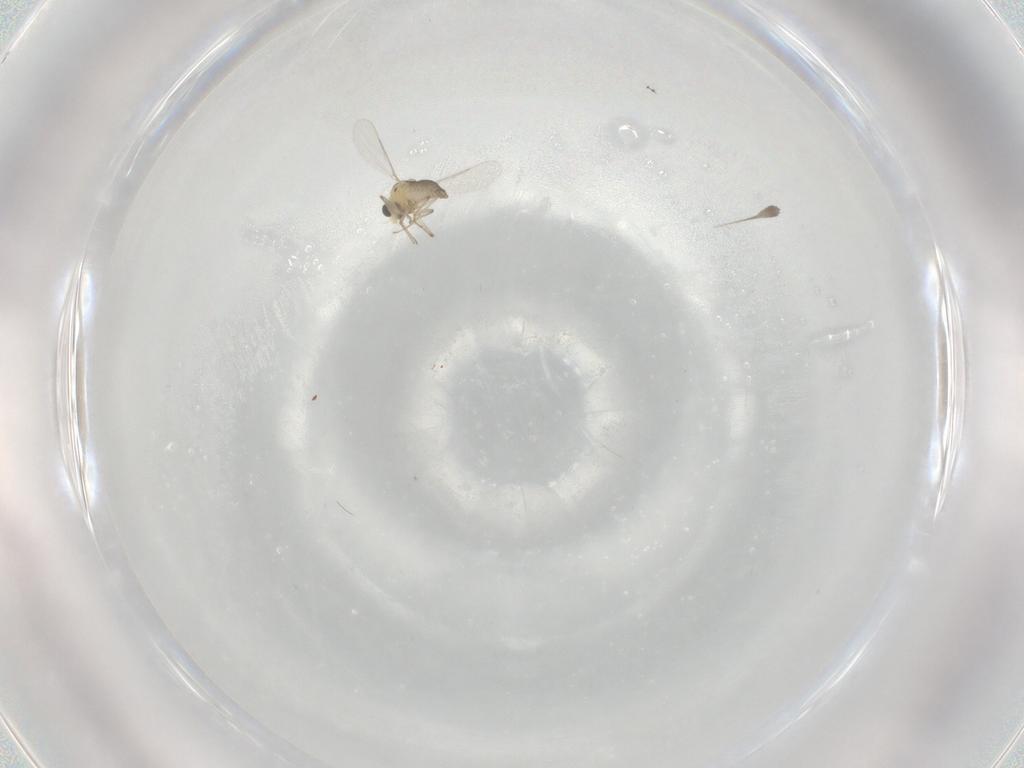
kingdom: Animalia
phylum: Arthropoda
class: Insecta
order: Diptera
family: Chironomidae
